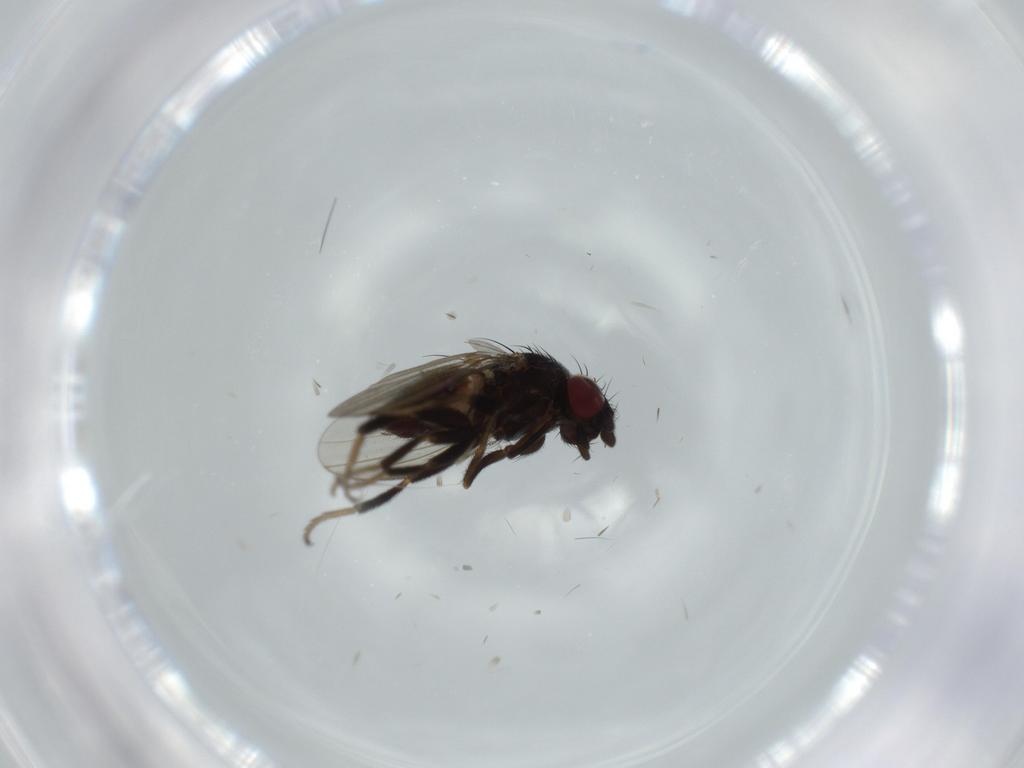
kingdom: Animalia
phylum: Arthropoda
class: Insecta
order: Diptera
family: Milichiidae
